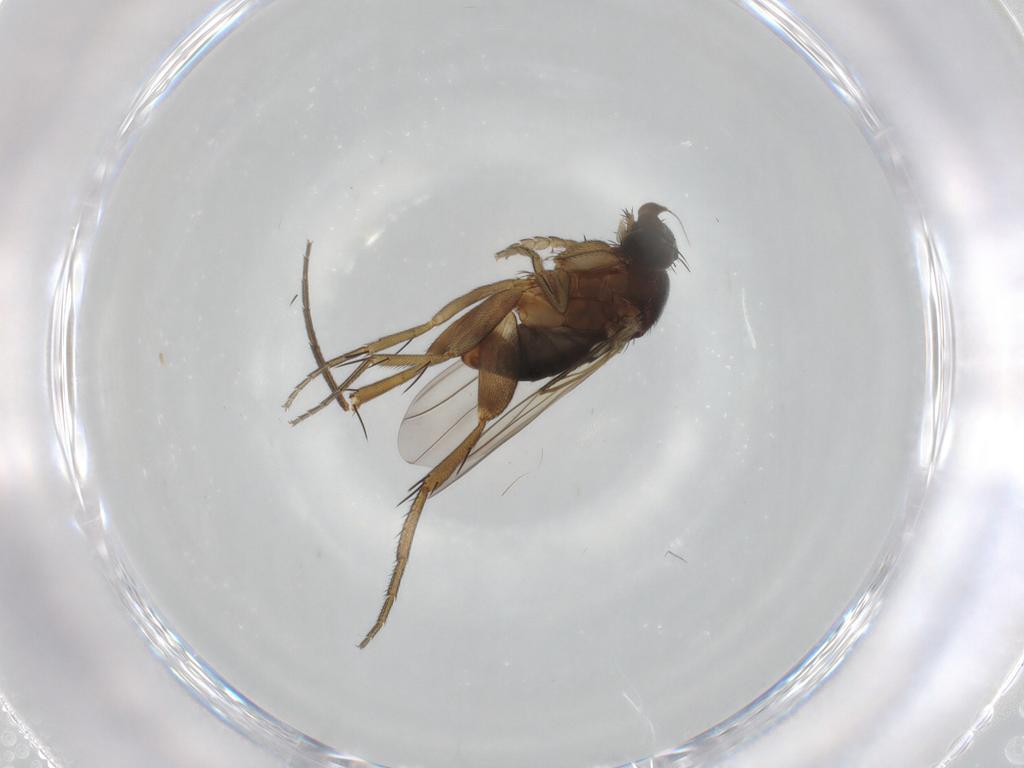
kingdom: Animalia
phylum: Arthropoda
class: Insecta
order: Diptera
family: Phoridae
